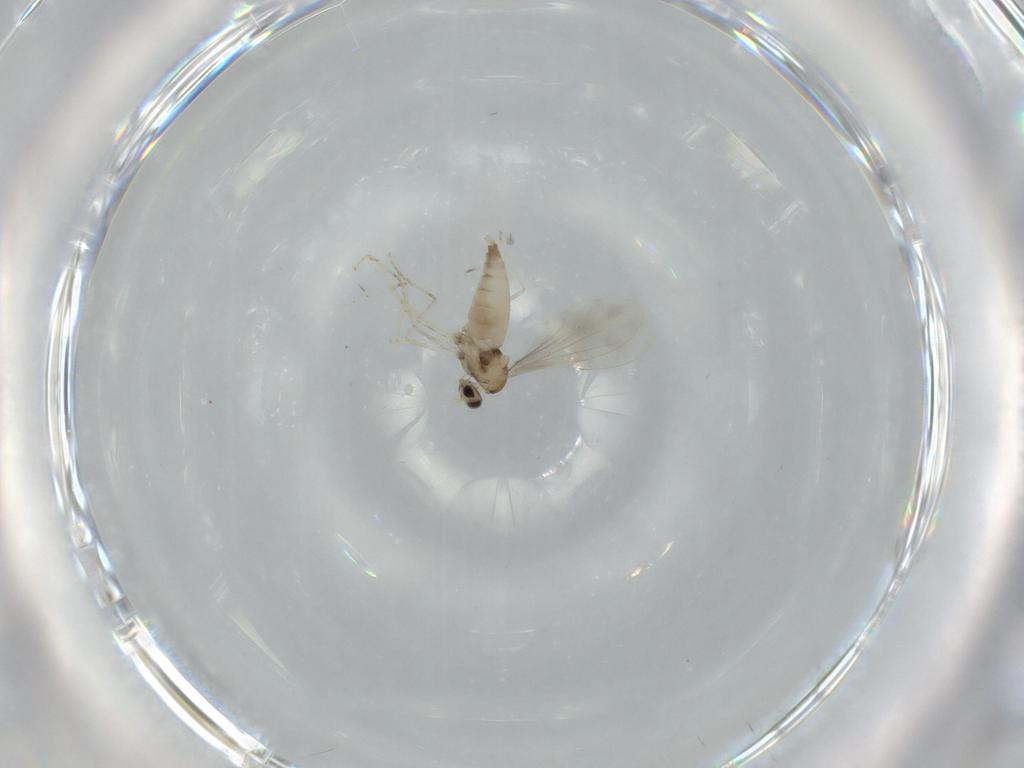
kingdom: Animalia
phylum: Arthropoda
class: Insecta
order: Diptera
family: Cecidomyiidae
